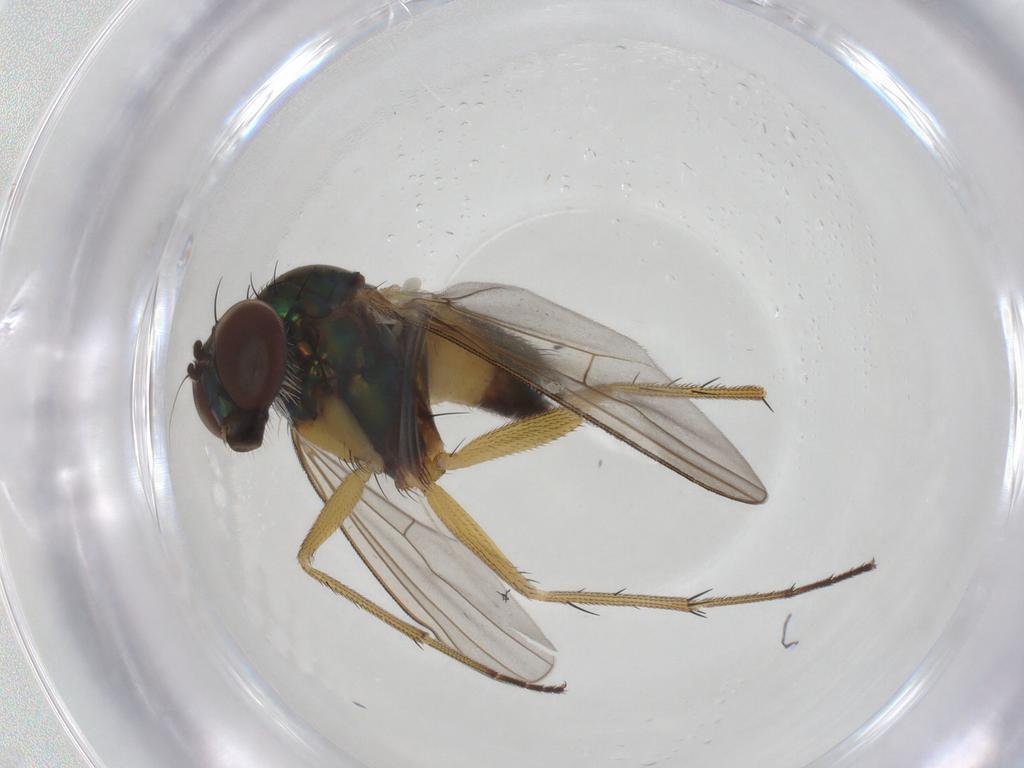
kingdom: Animalia
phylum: Arthropoda
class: Insecta
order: Diptera
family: Dolichopodidae
